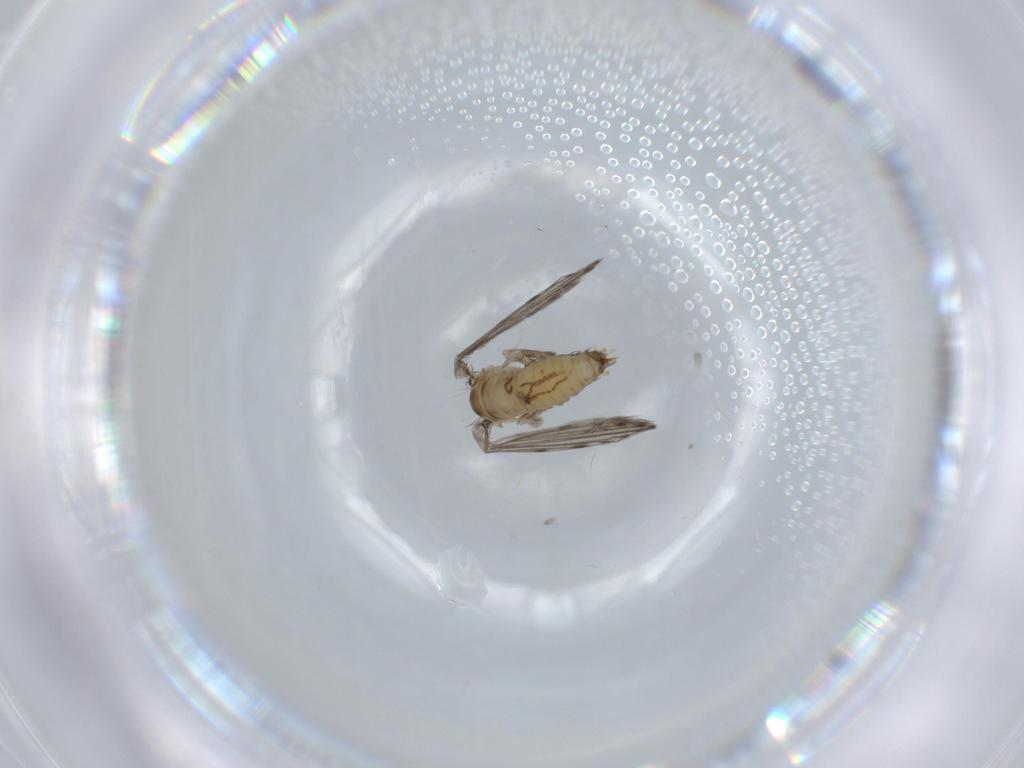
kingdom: Animalia
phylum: Arthropoda
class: Insecta
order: Diptera
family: Psychodidae
